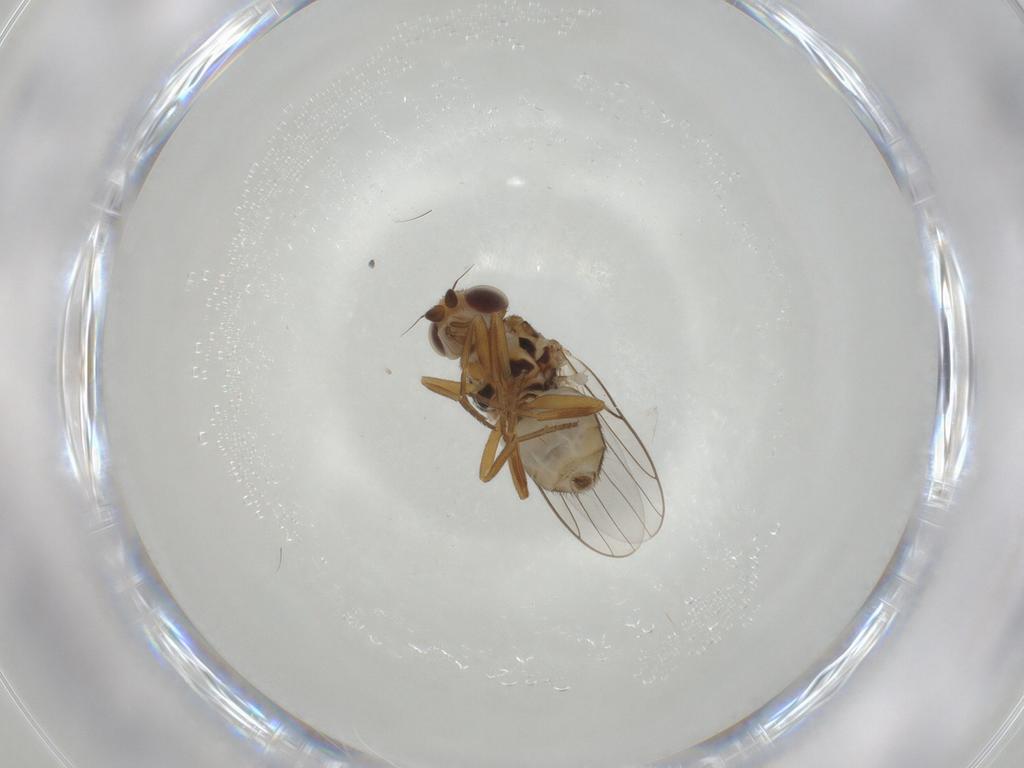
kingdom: Animalia
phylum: Arthropoda
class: Insecta
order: Diptera
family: Chloropidae
